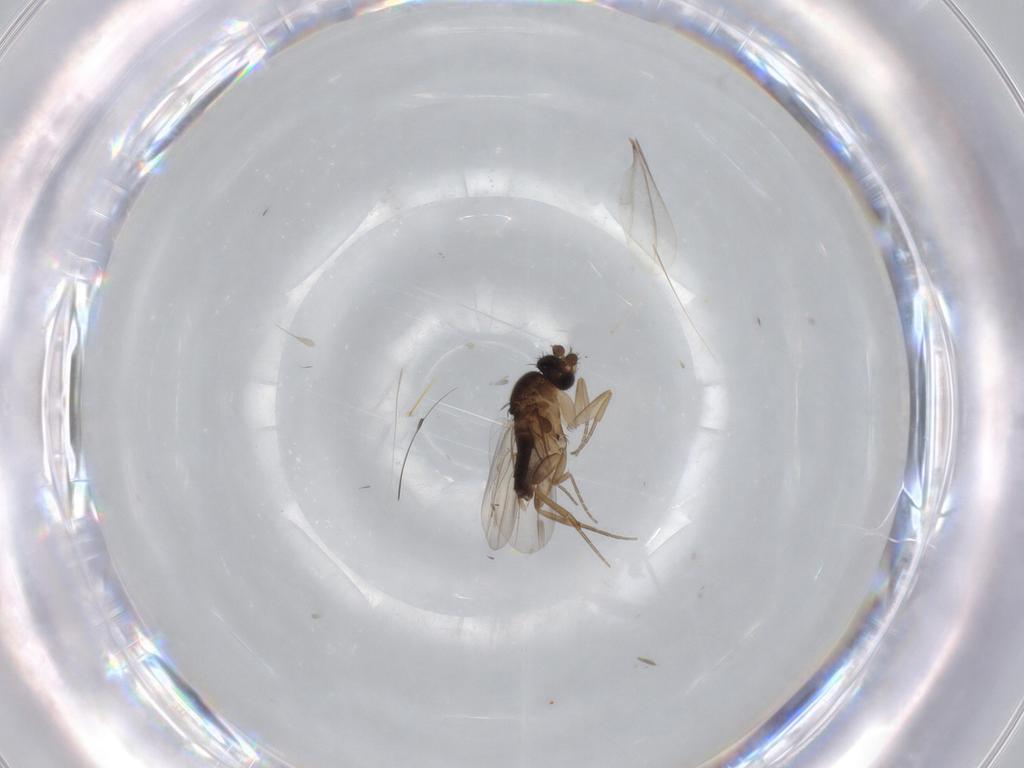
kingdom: Animalia
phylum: Arthropoda
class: Insecta
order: Diptera
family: Phoridae
